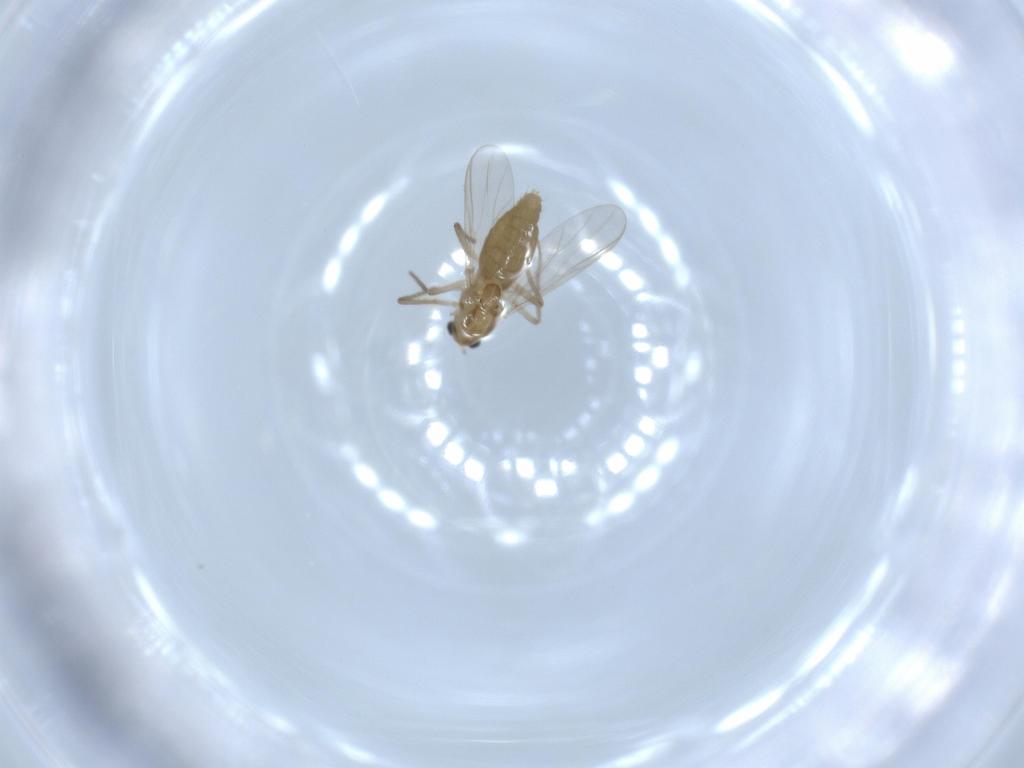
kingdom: Animalia
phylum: Arthropoda
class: Insecta
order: Diptera
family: Chironomidae
